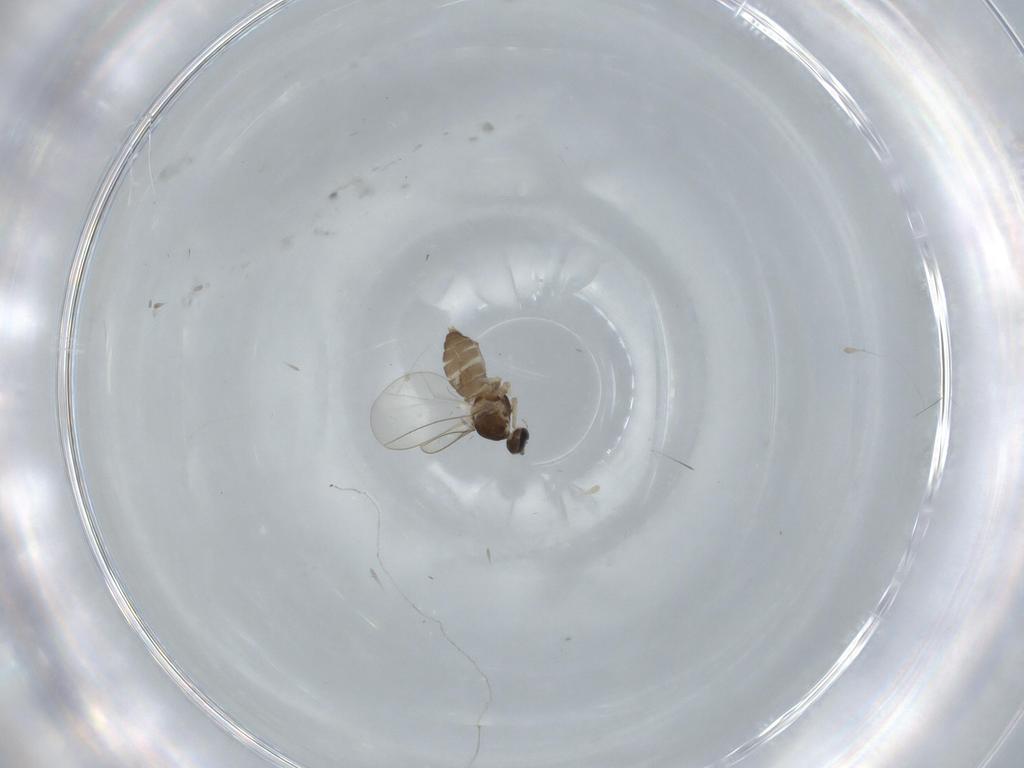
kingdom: Animalia
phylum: Arthropoda
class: Insecta
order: Diptera
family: Cecidomyiidae
